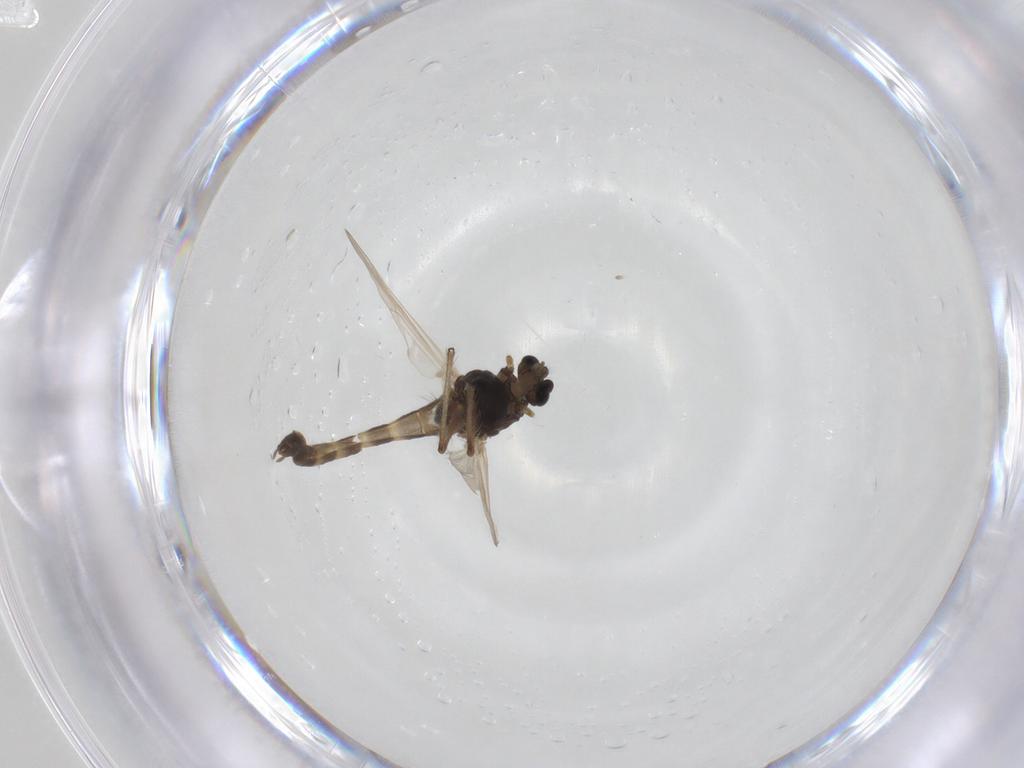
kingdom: Animalia
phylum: Arthropoda
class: Insecta
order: Diptera
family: Chironomidae
